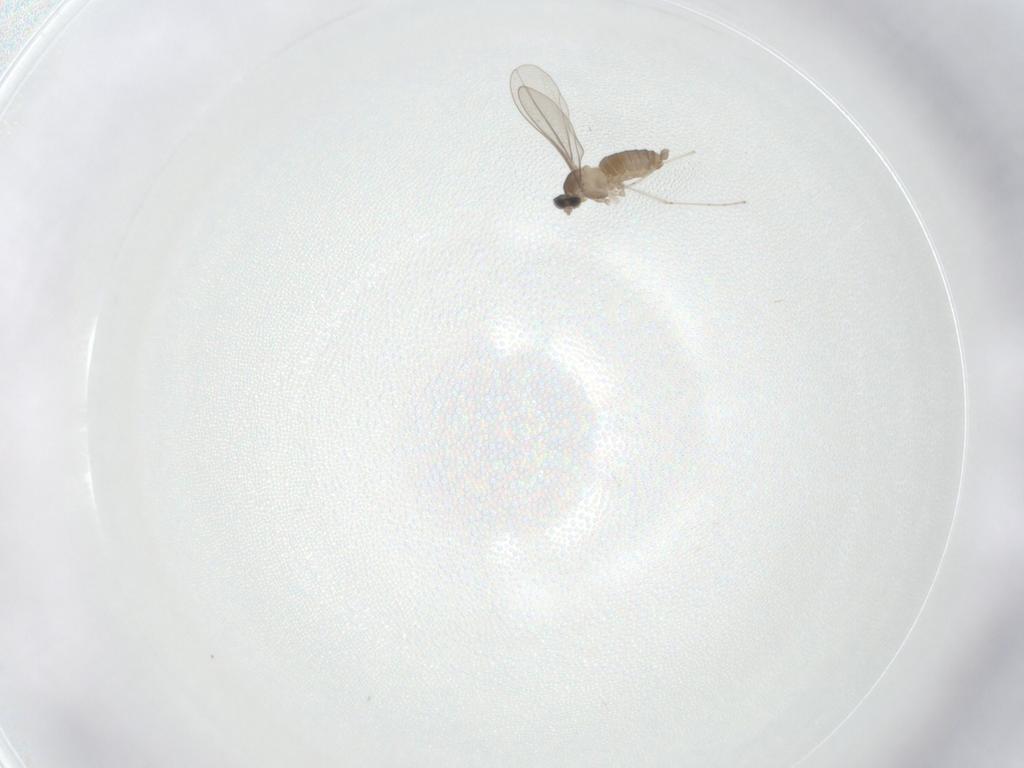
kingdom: Animalia
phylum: Arthropoda
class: Insecta
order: Diptera
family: Cecidomyiidae
